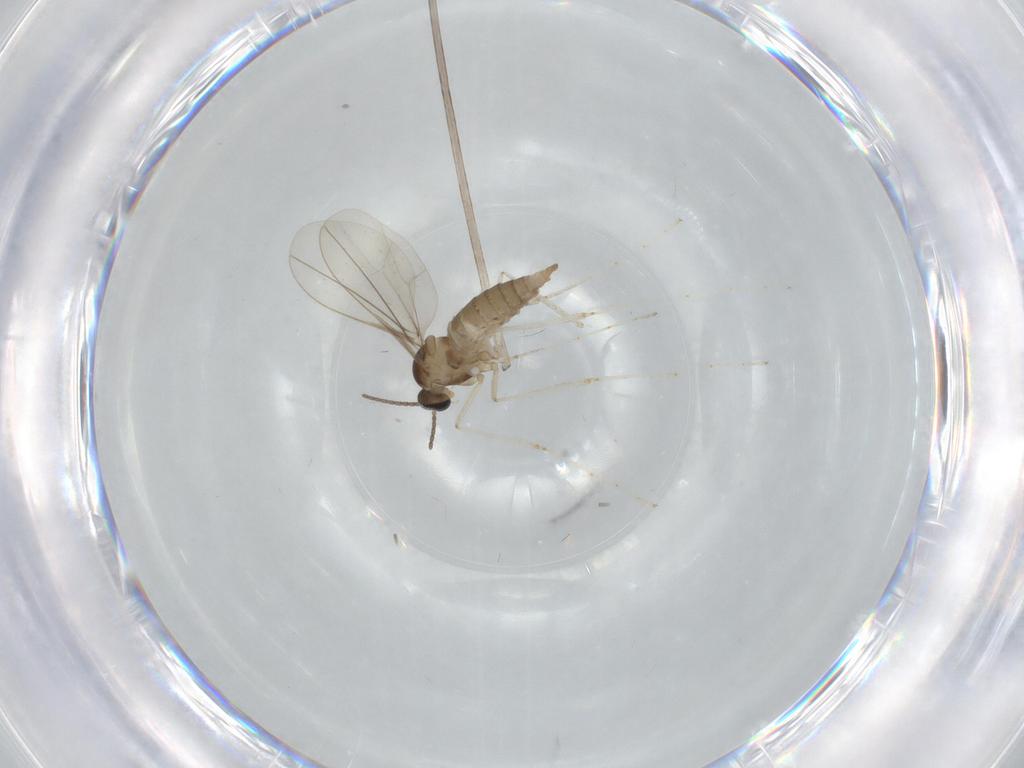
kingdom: Animalia
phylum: Arthropoda
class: Insecta
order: Diptera
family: Cecidomyiidae
